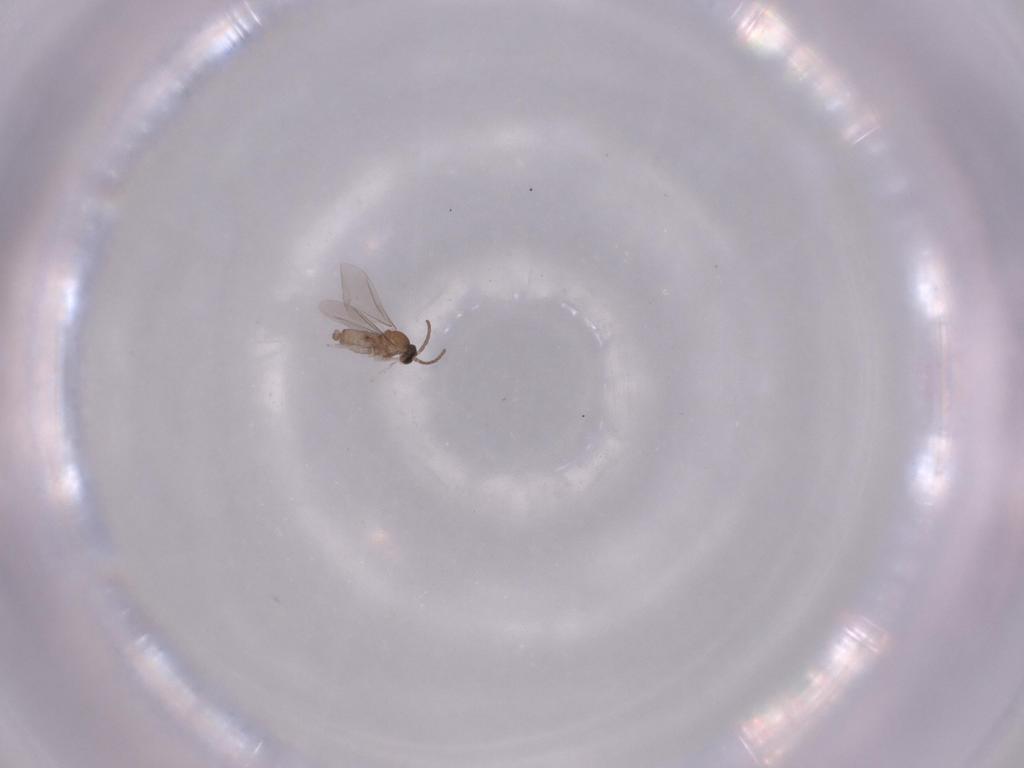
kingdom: Animalia
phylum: Arthropoda
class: Insecta
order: Diptera
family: Cecidomyiidae
